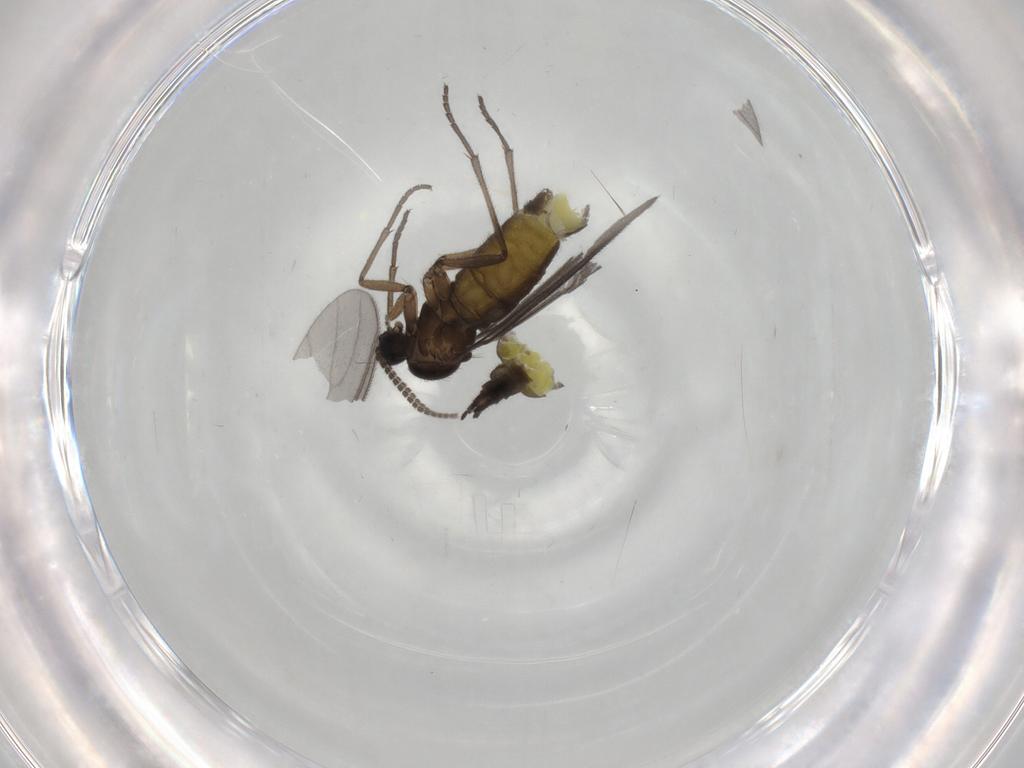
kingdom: Animalia
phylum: Arthropoda
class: Insecta
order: Diptera
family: Sciaridae
